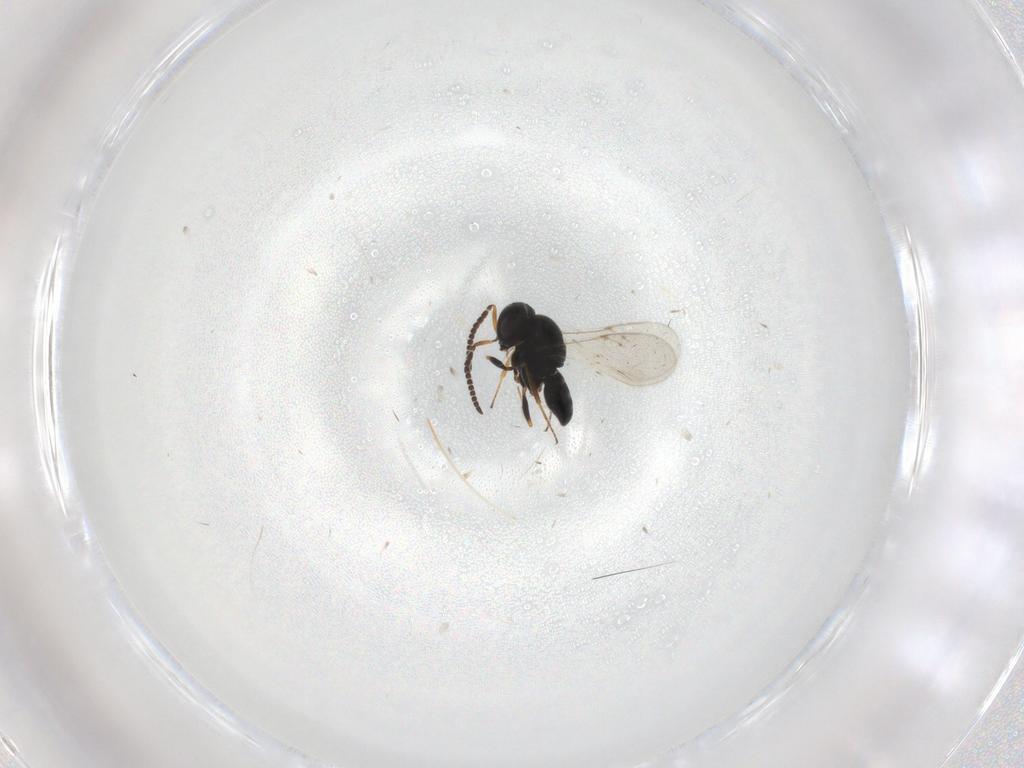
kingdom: Animalia
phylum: Arthropoda
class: Insecta
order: Coleoptera
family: Curculionidae
